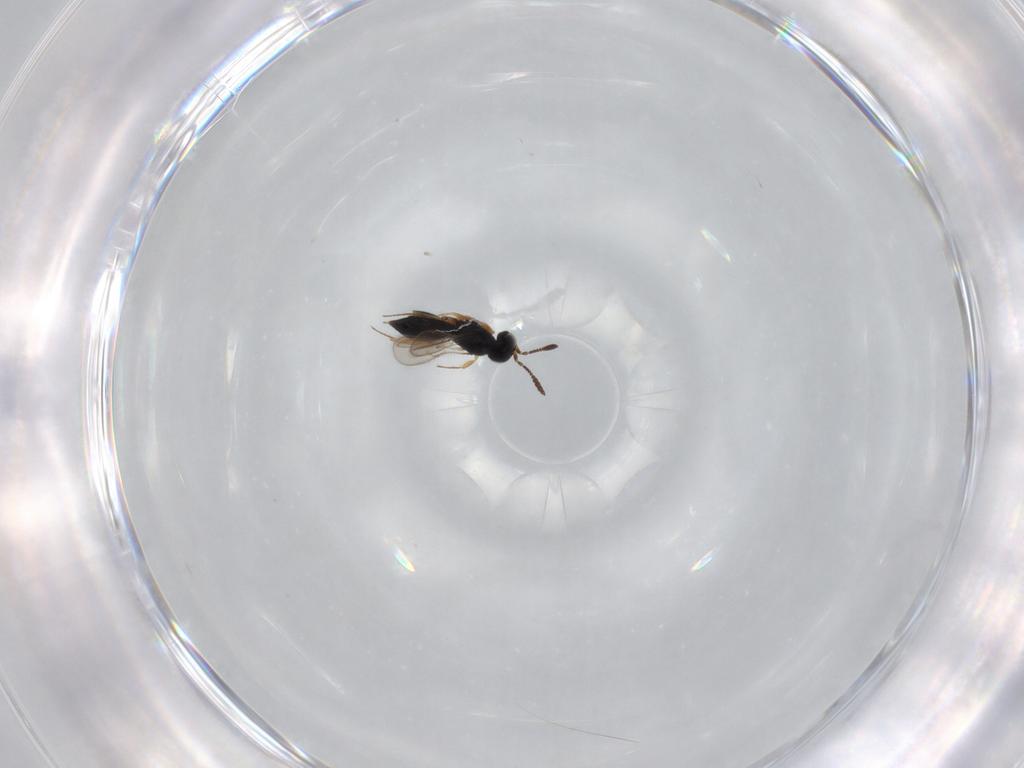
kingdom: Animalia
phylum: Arthropoda
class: Insecta
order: Hymenoptera
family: Scelionidae
